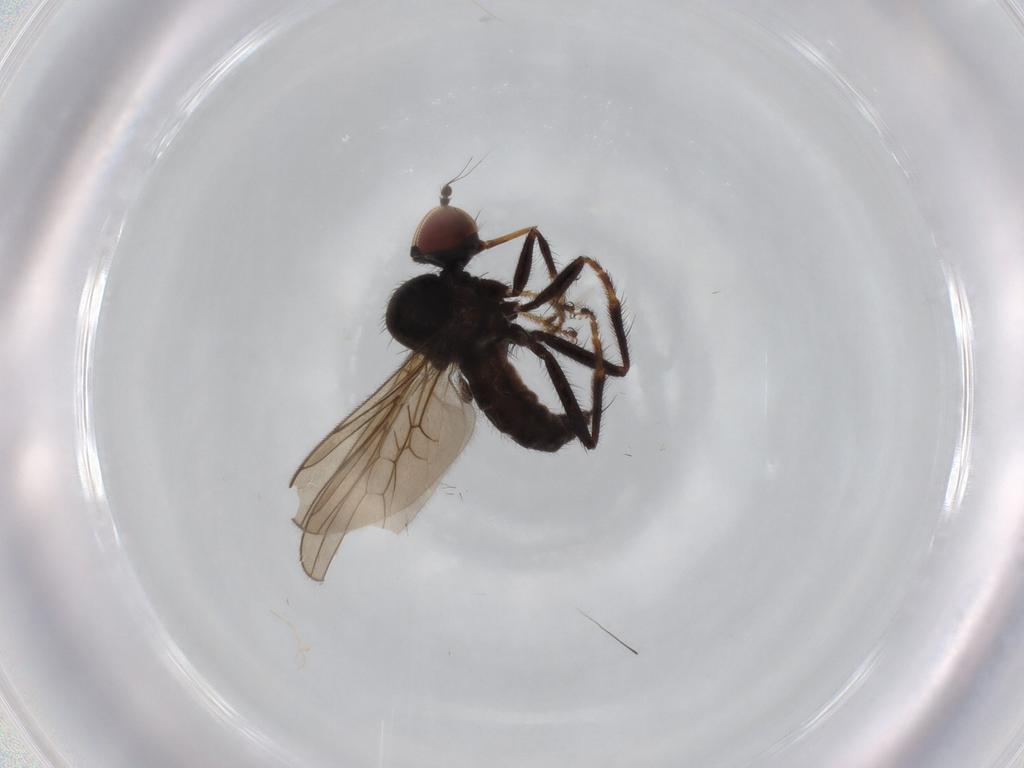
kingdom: Animalia
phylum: Arthropoda
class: Insecta
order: Diptera
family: Hybotidae
